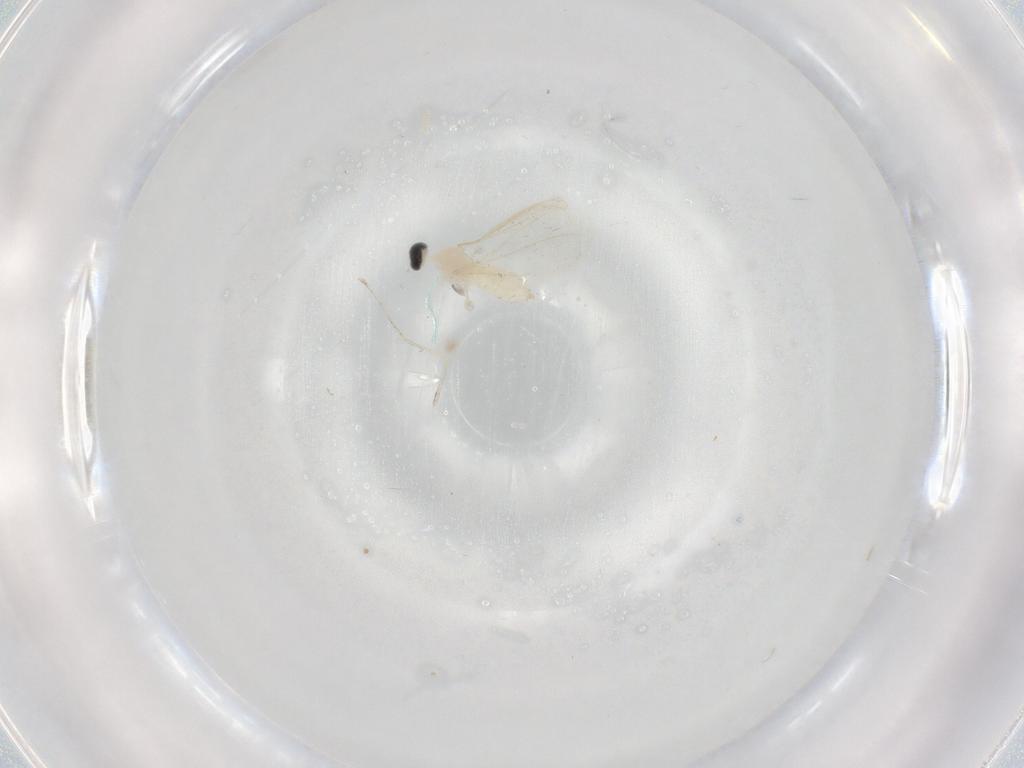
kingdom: Animalia
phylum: Arthropoda
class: Insecta
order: Diptera
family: Cecidomyiidae
